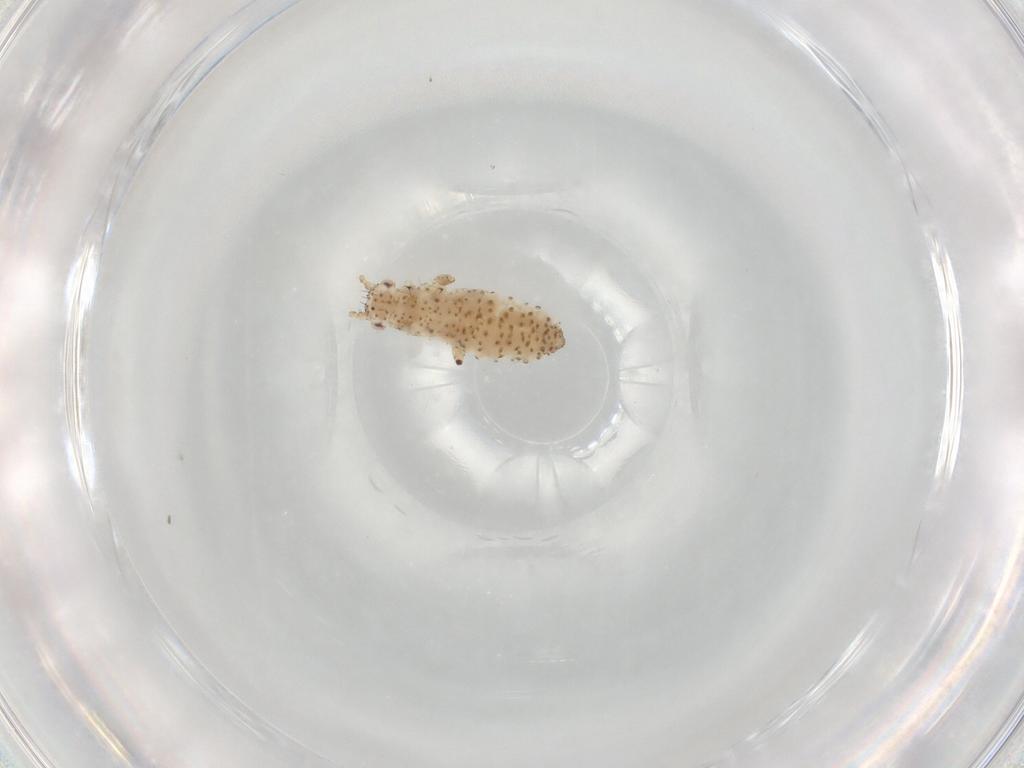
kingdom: Animalia
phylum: Arthropoda
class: Insecta
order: Hemiptera
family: Aphididae
